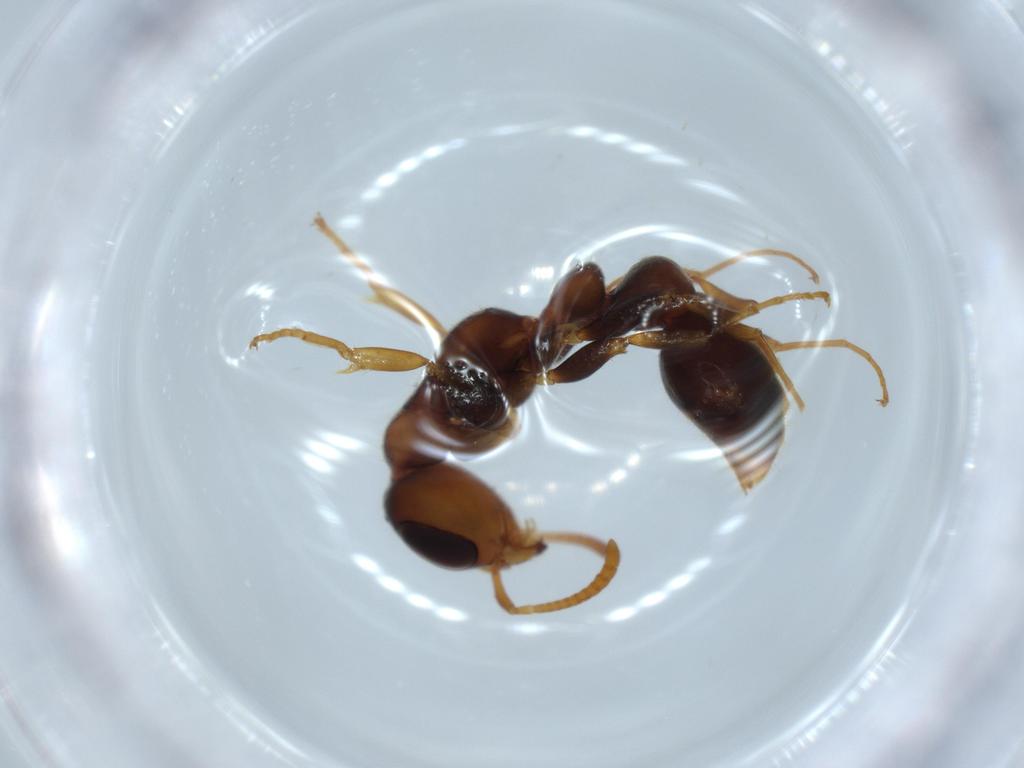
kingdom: Animalia
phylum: Arthropoda
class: Insecta
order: Hymenoptera
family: Formicidae
